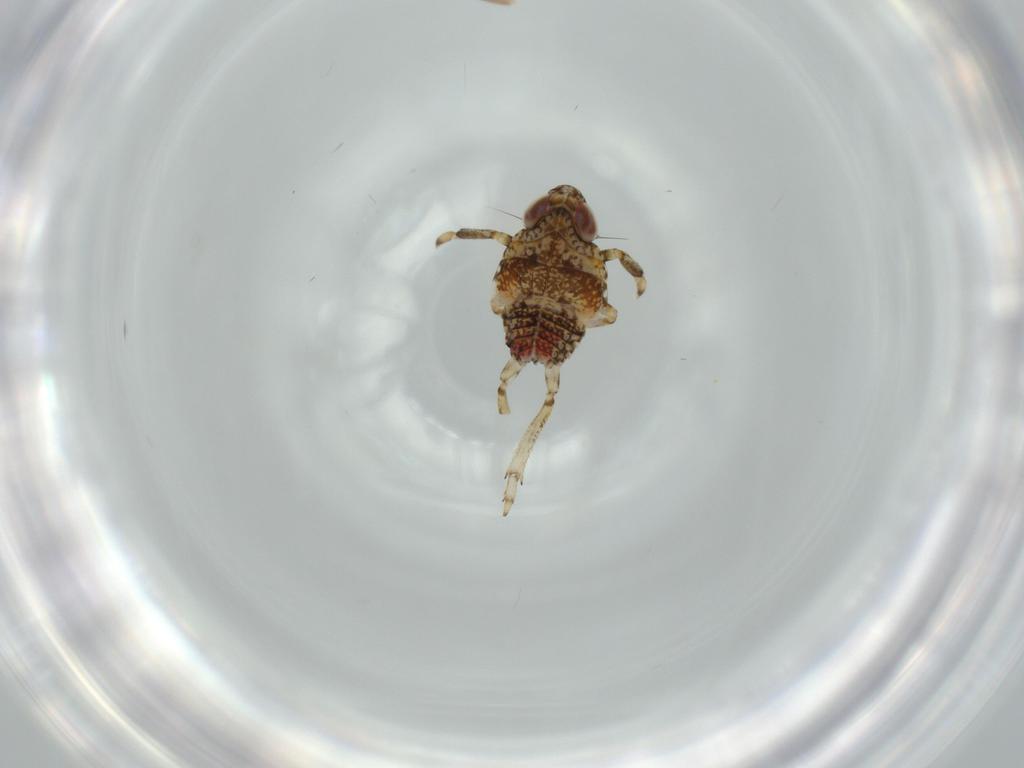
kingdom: Animalia
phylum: Arthropoda
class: Insecta
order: Hemiptera
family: Issidae
